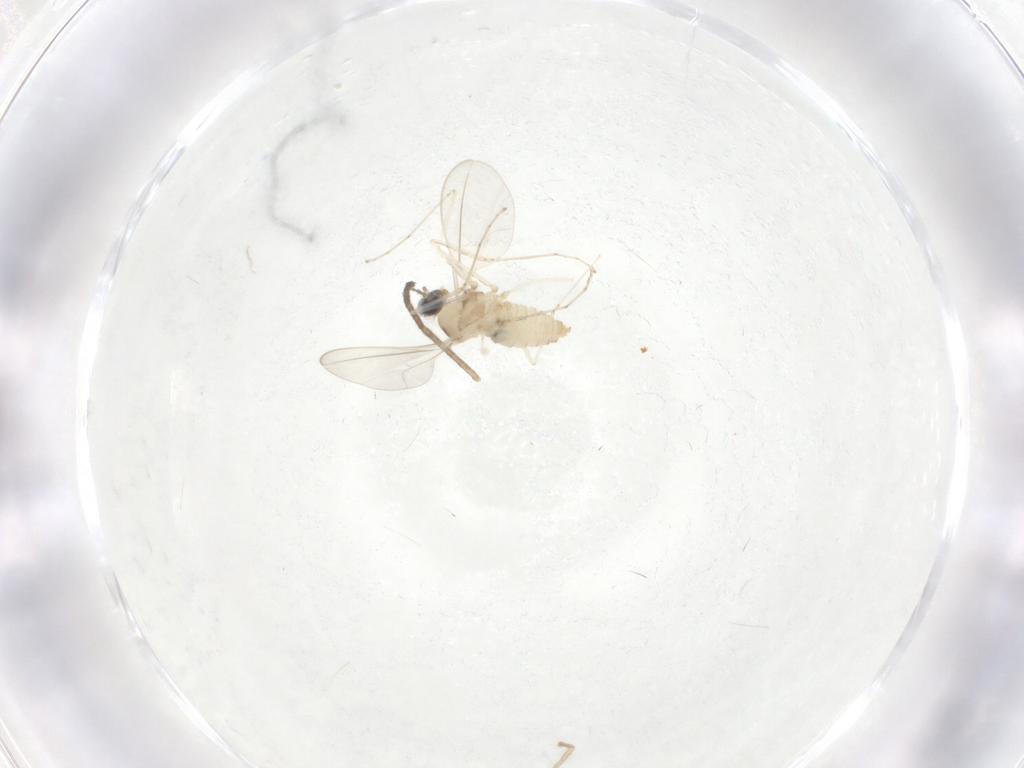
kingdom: Animalia
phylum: Arthropoda
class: Insecta
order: Diptera
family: Cecidomyiidae
